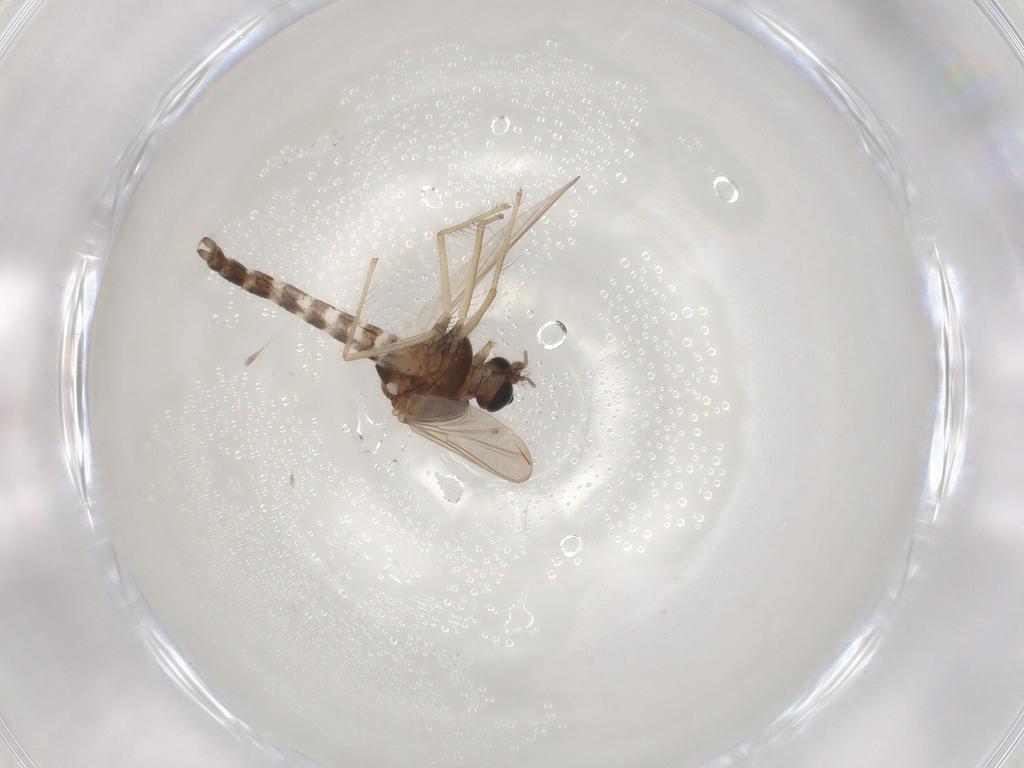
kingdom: Animalia
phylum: Arthropoda
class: Insecta
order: Diptera
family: Chironomidae
